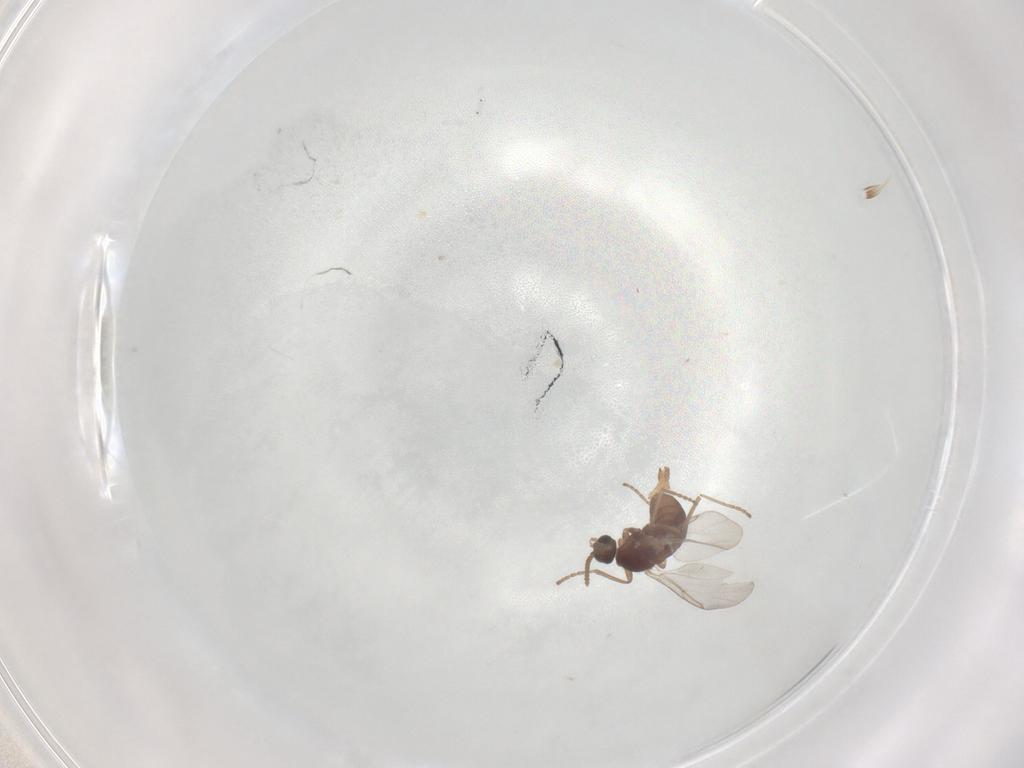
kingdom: Animalia
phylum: Arthropoda
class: Insecta
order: Diptera
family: Cecidomyiidae
